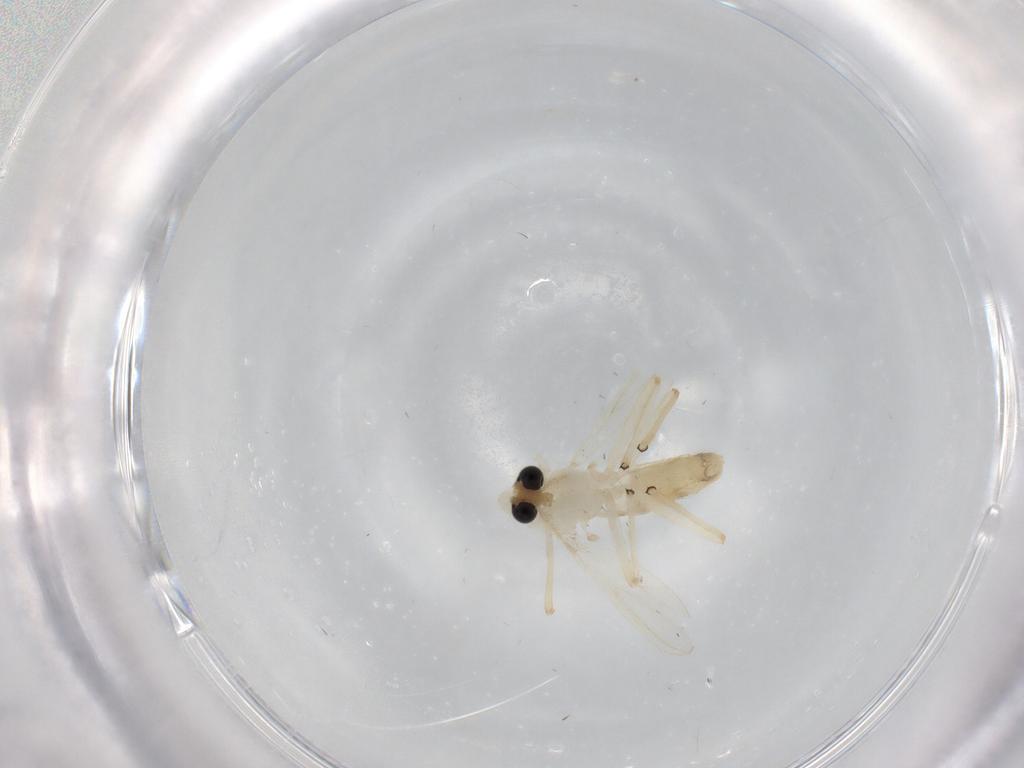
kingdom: Animalia
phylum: Arthropoda
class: Insecta
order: Diptera
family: Chironomidae
